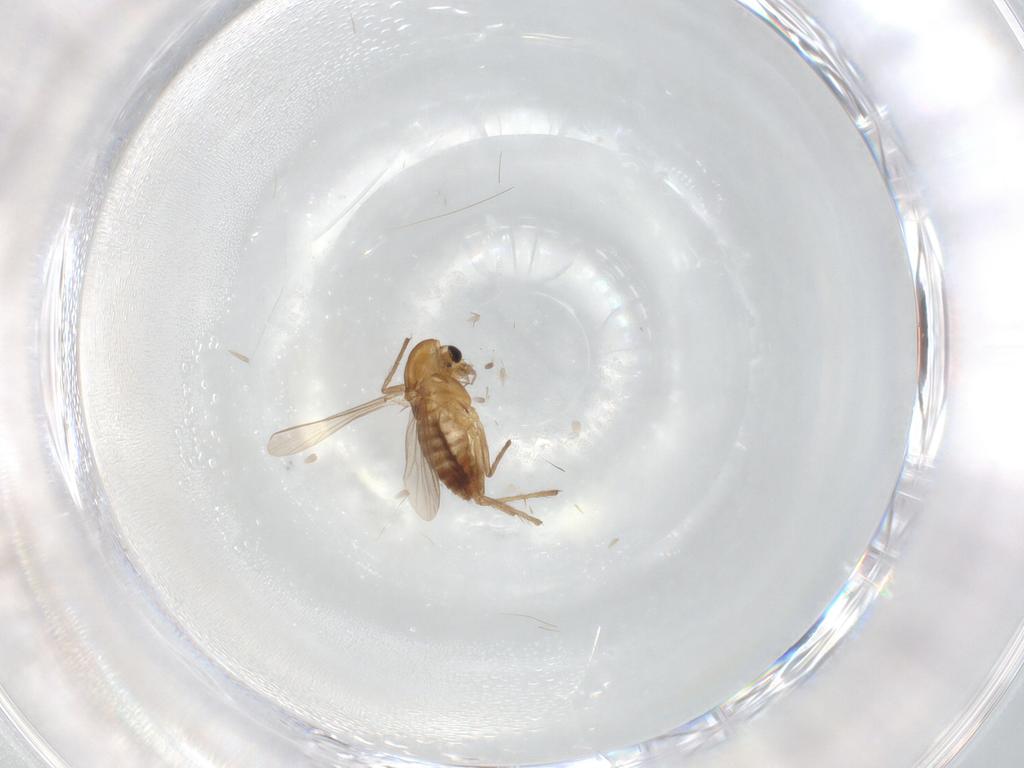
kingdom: Animalia
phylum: Arthropoda
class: Insecta
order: Diptera
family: Chironomidae
